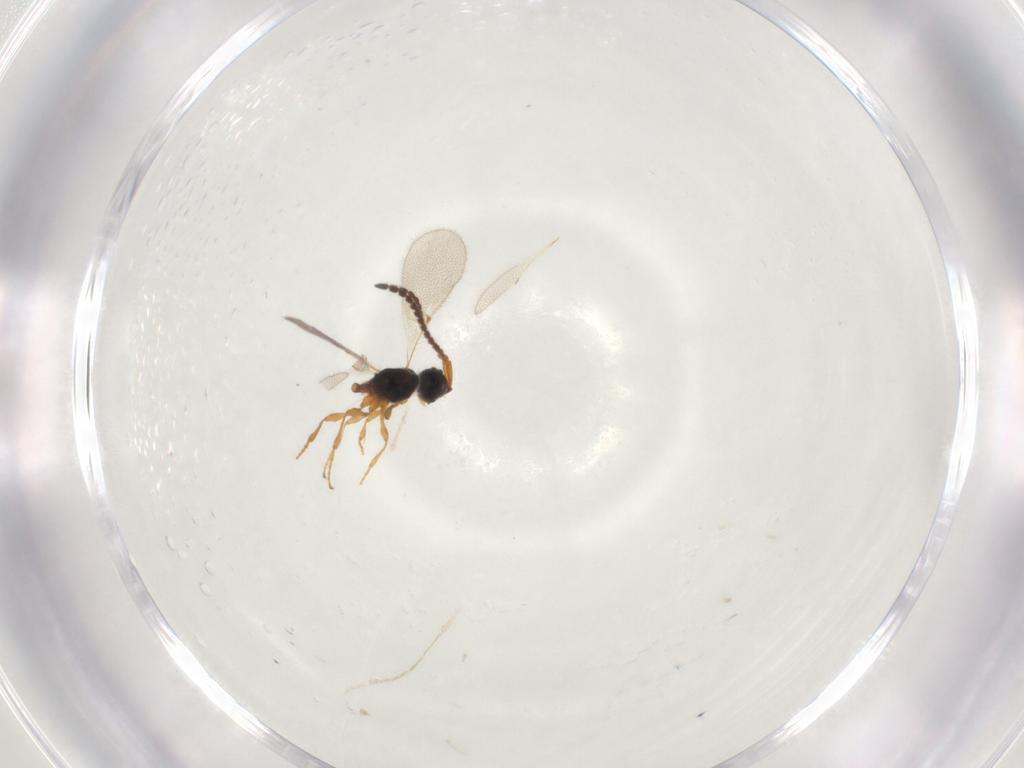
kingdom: Animalia
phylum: Arthropoda
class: Insecta
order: Hymenoptera
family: Diapriidae
